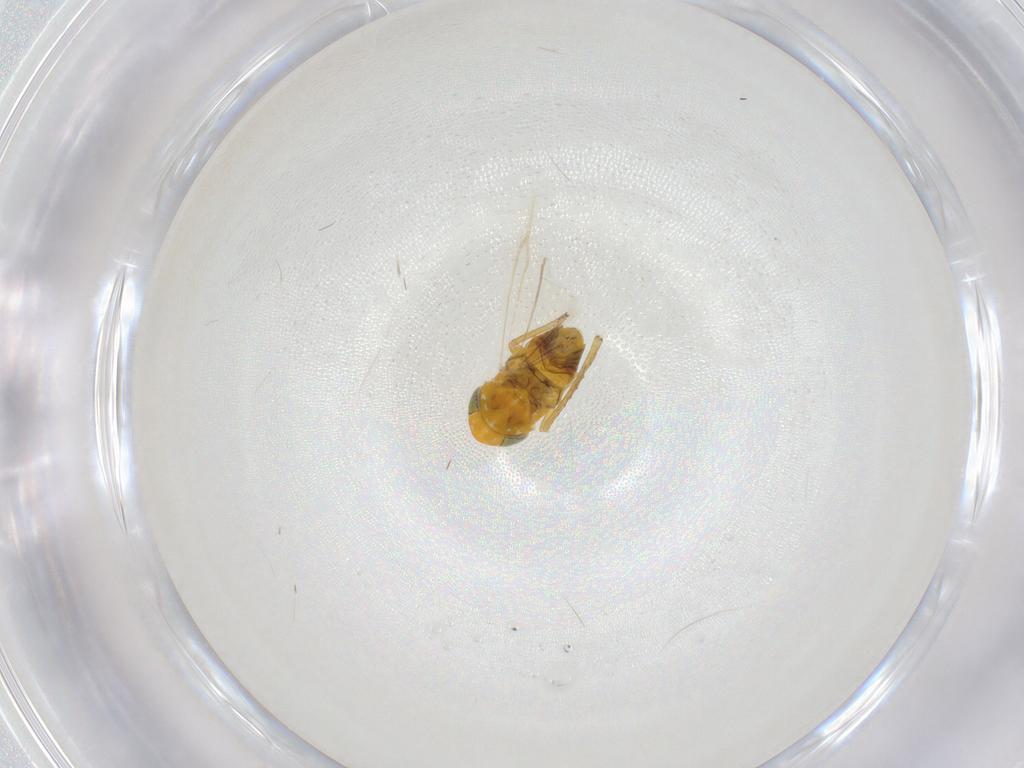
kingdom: Animalia
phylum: Arthropoda
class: Insecta
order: Hemiptera
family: Cicadellidae
